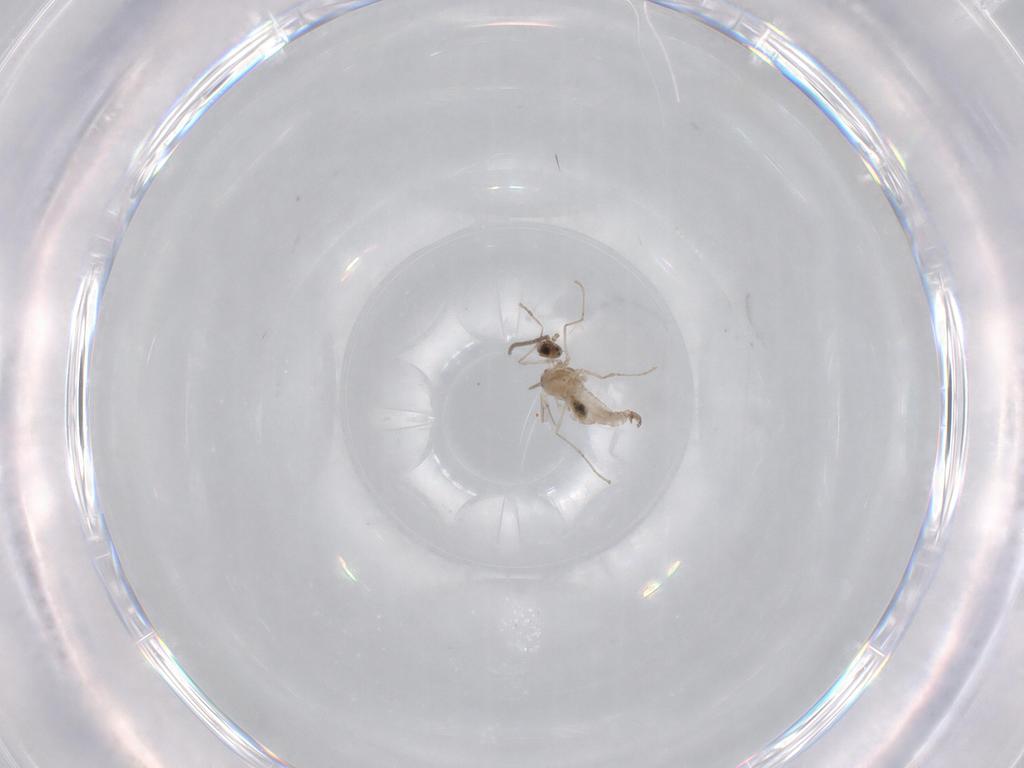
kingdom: Animalia
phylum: Arthropoda
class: Insecta
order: Diptera
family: Cecidomyiidae
